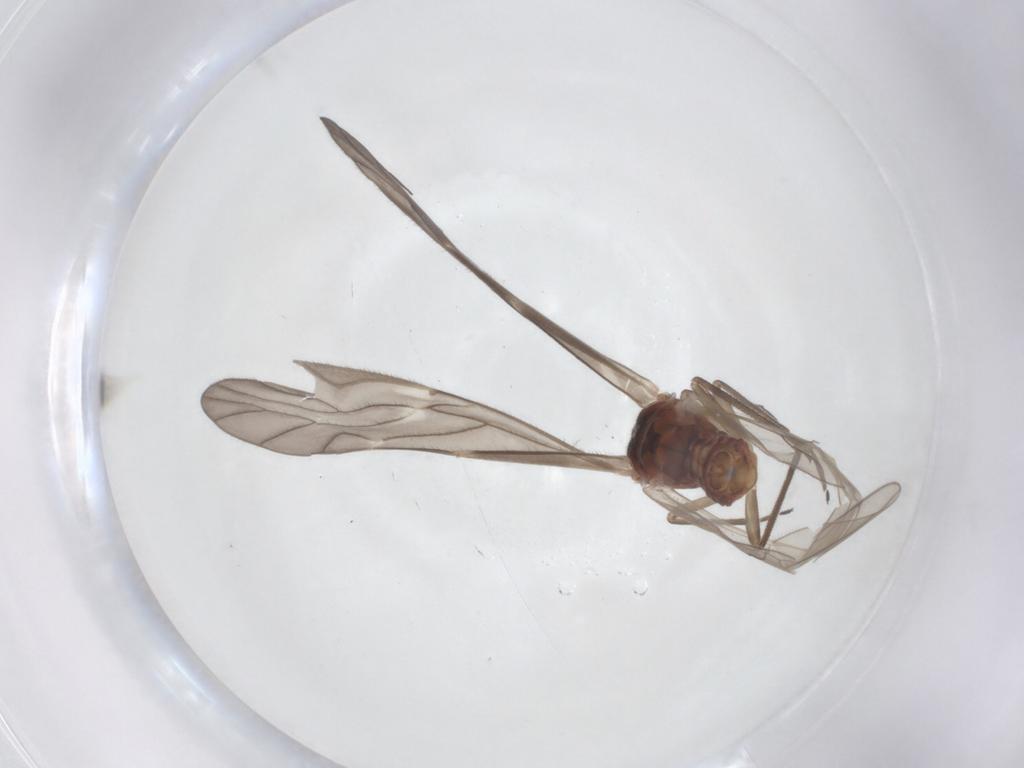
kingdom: Animalia
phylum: Arthropoda
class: Insecta
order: Psocodea
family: Caeciliusidae
